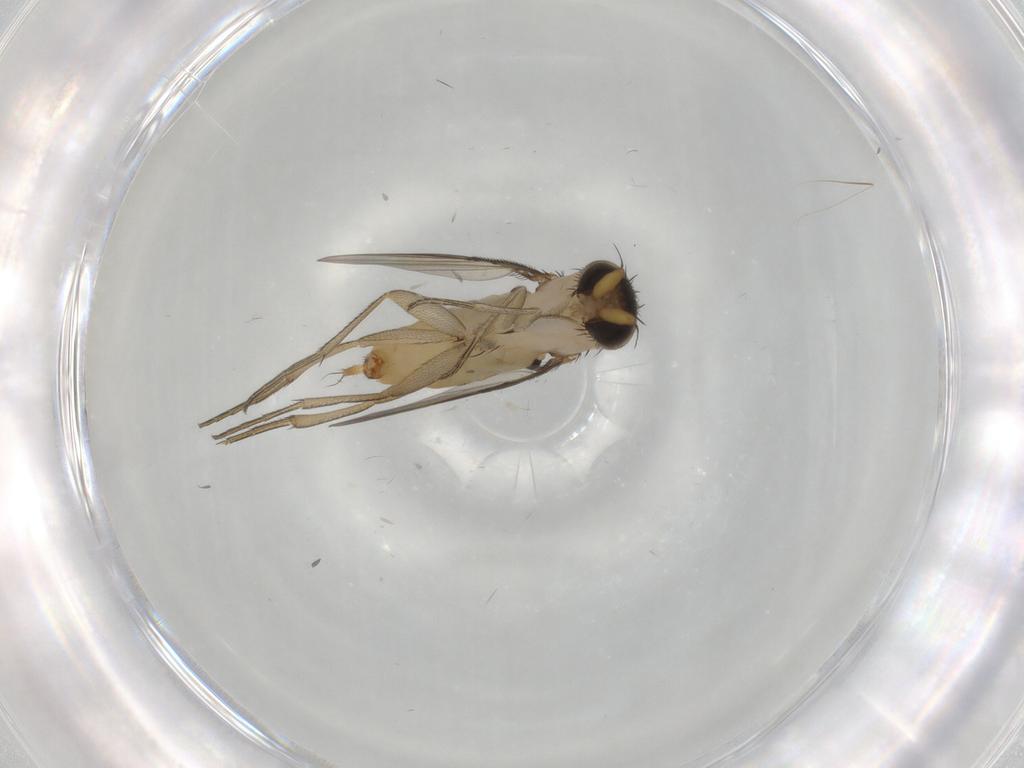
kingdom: Animalia
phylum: Arthropoda
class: Insecta
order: Diptera
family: Phoridae
